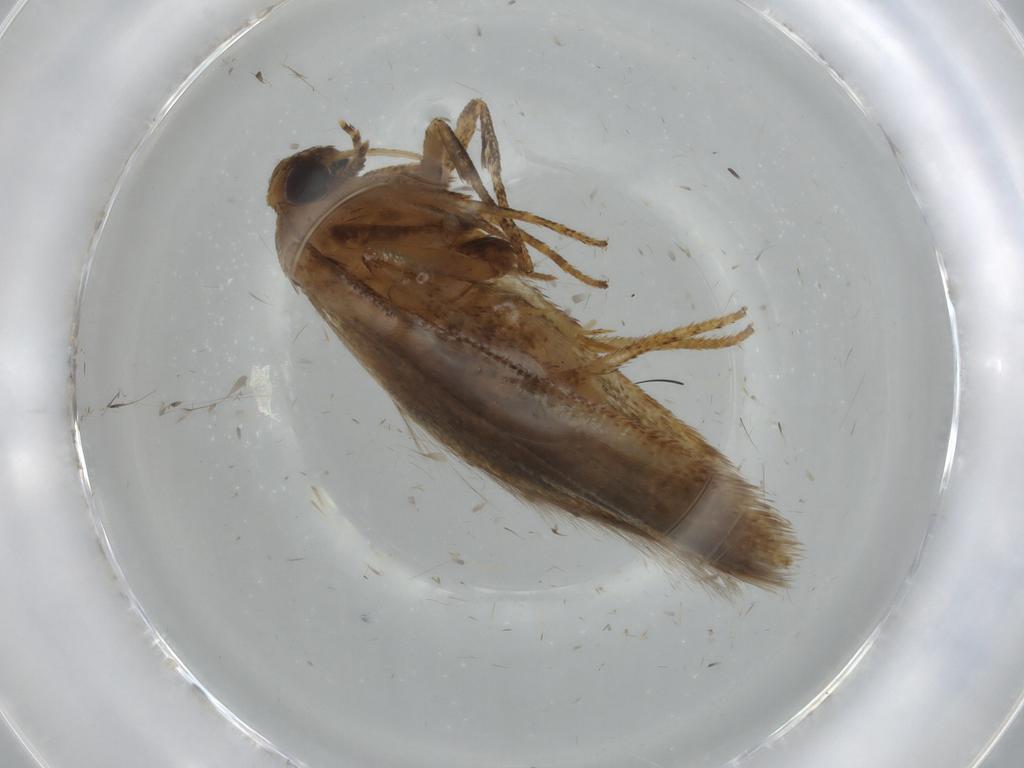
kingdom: Animalia
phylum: Arthropoda
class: Insecta
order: Lepidoptera
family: Coleophoridae
